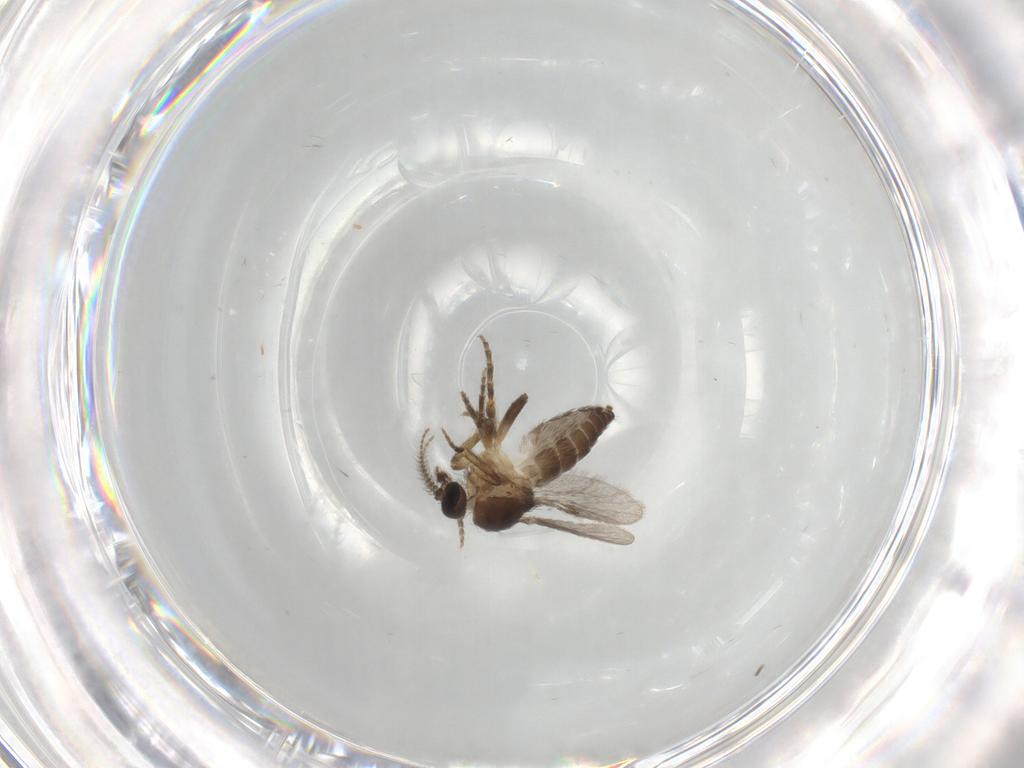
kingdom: Animalia
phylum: Arthropoda
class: Insecta
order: Diptera
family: Ceratopogonidae
